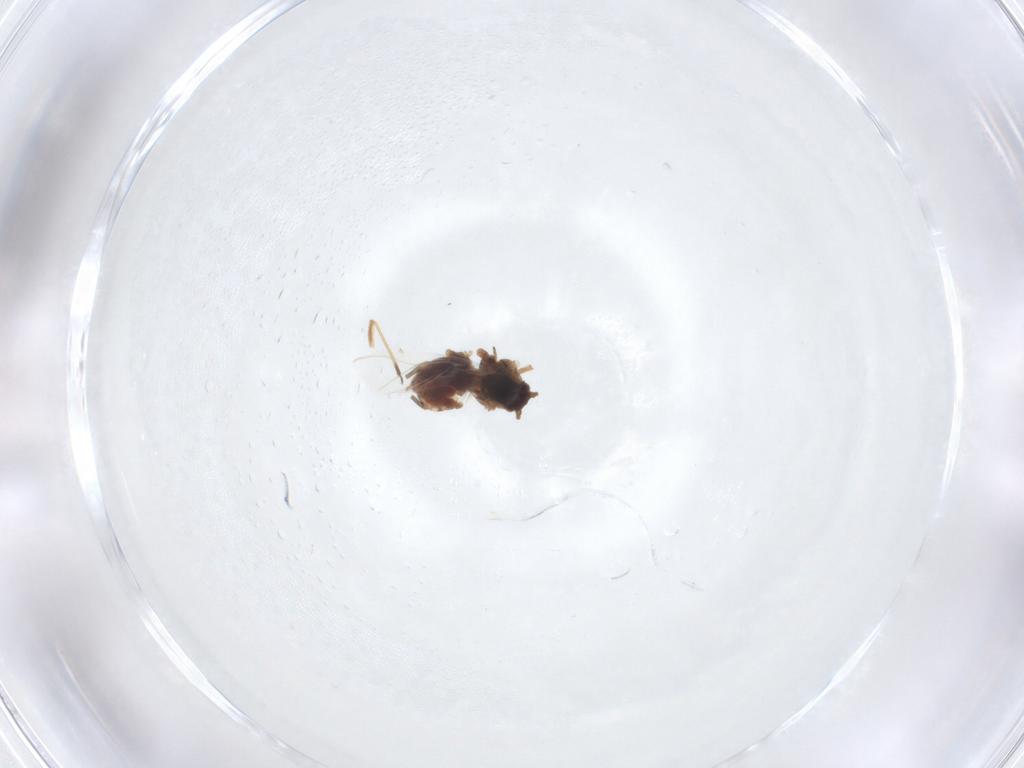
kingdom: Animalia
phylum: Arthropoda
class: Insecta
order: Hemiptera
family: Aphididae
